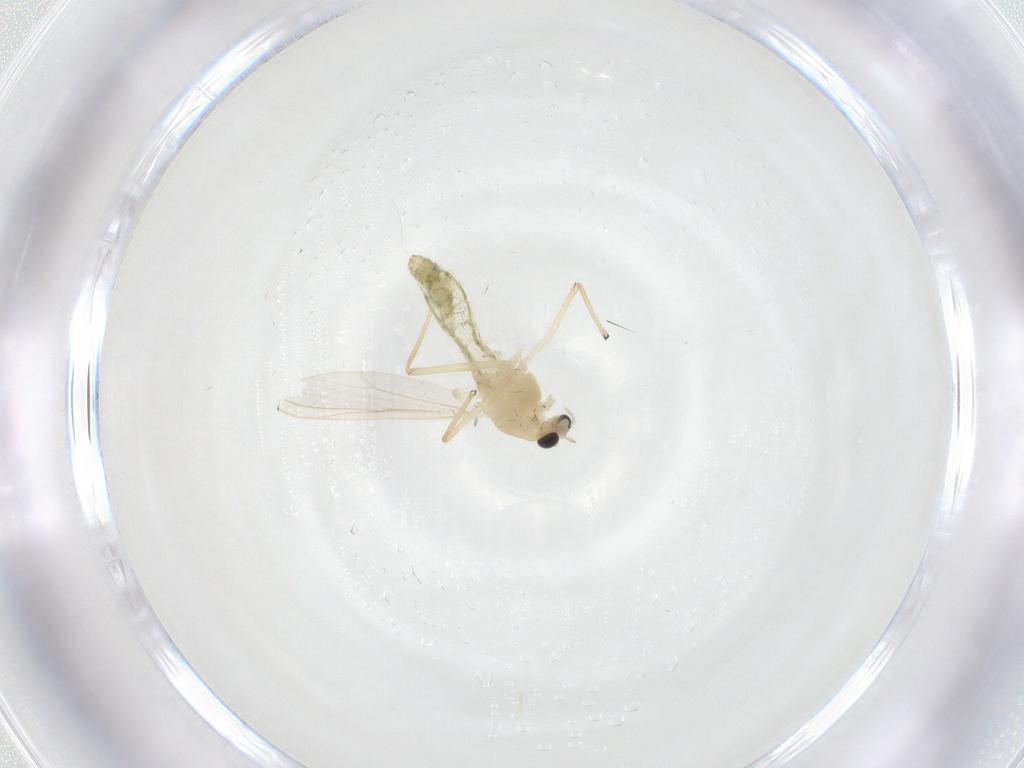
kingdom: Animalia
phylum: Arthropoda
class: Insecta
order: Diptera
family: Chironomidae
